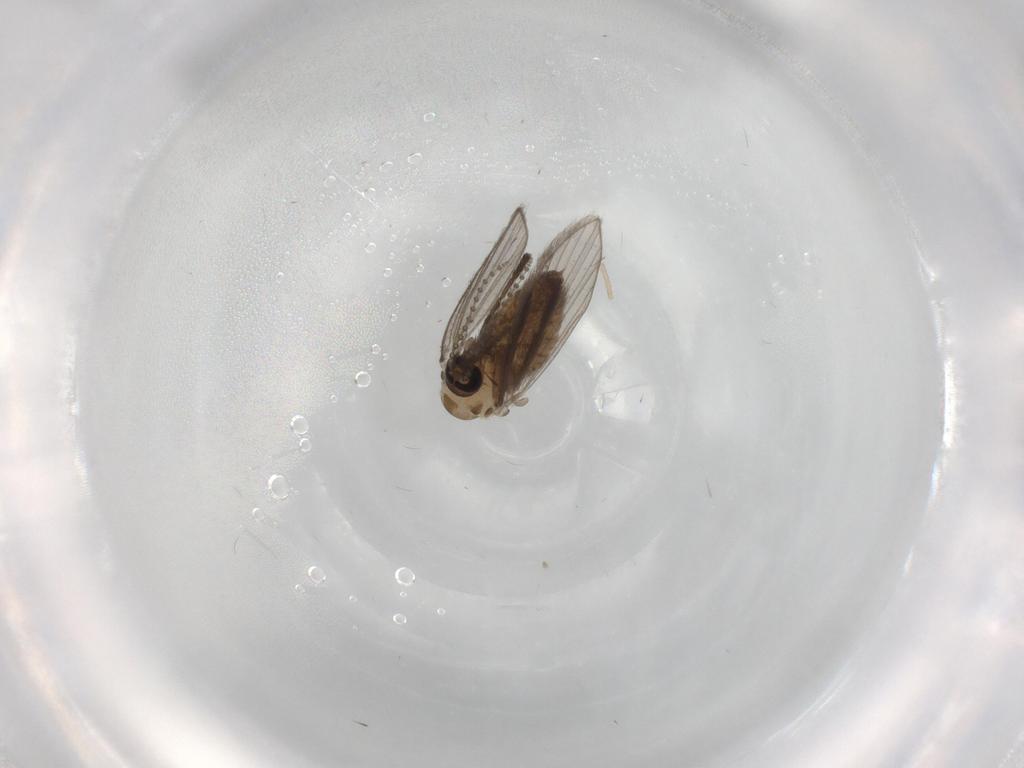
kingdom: Animalia
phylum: Arthropoda
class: Insecta
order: Diptera
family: Psychodidae
